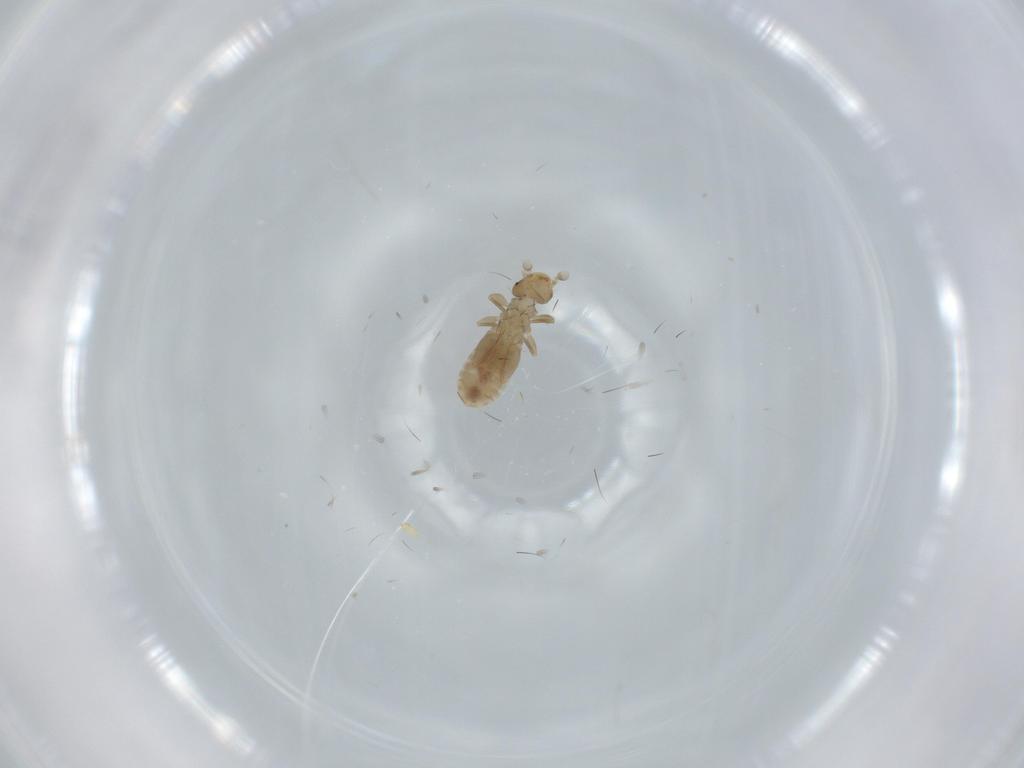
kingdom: Animalia
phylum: Arthropoda
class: Insecta
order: Psocodea
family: Liposcelididae
